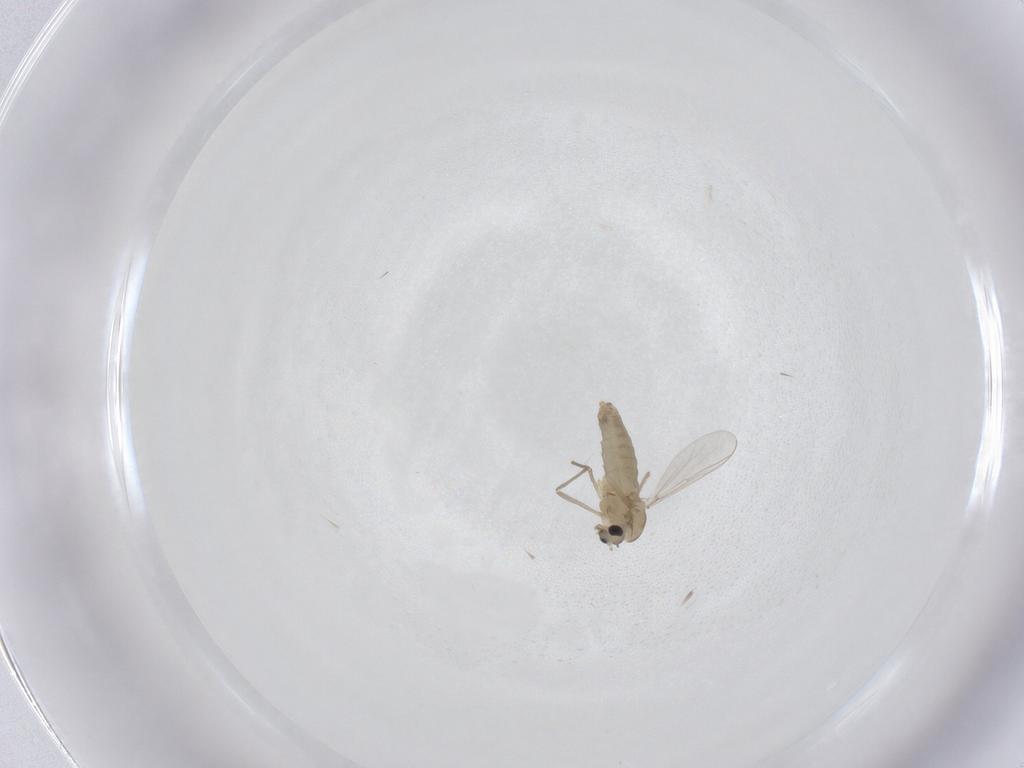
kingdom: Animalia
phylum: Arthropoda
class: Insecta
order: Diptera
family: Chironomidae
